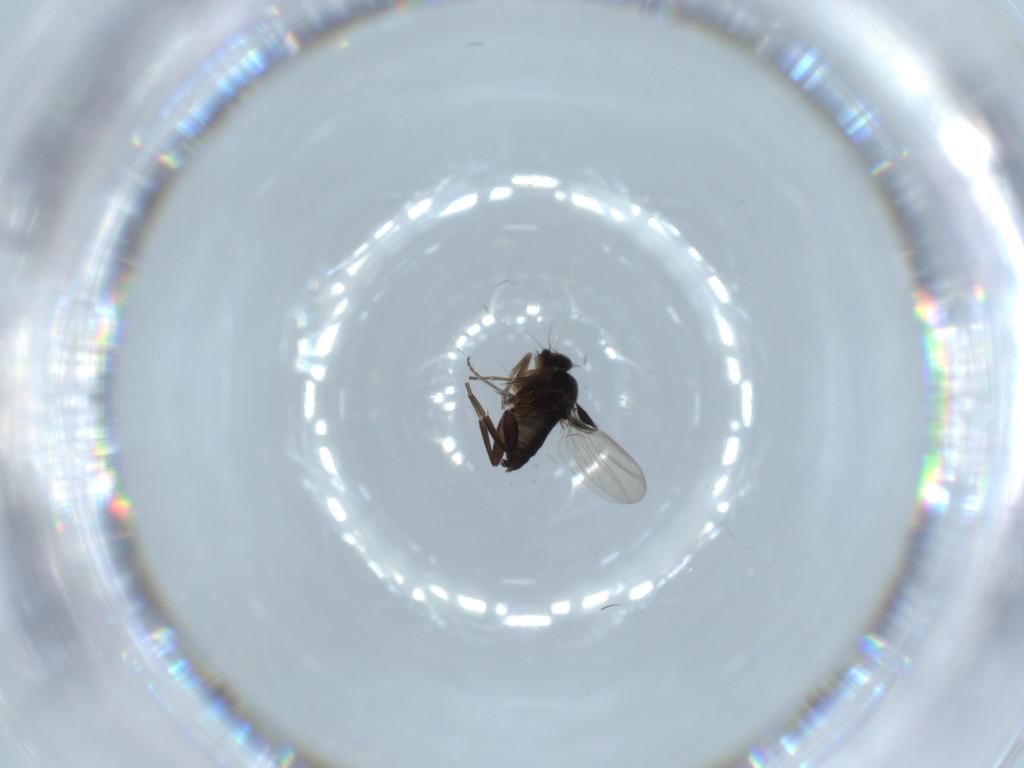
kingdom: Animalia
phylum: Arthropoda
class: Insecta
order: Diptera
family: Phoridae
